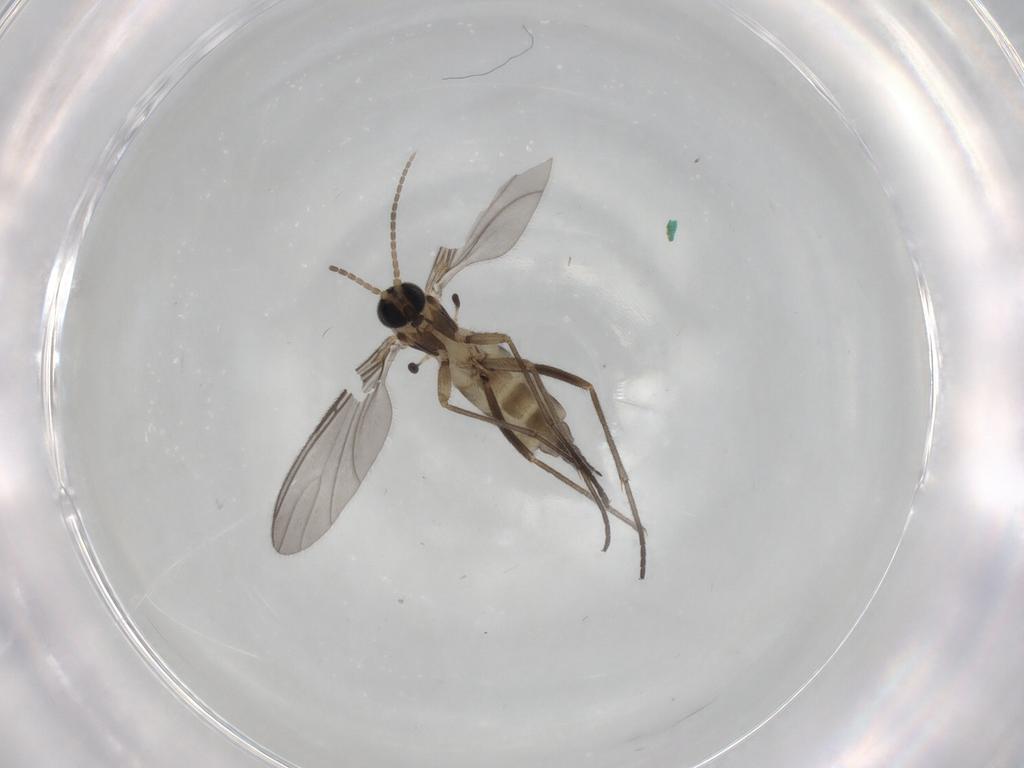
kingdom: Animalia
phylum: Arthropoda
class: Insecta
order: Diptera
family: Sciaridae
